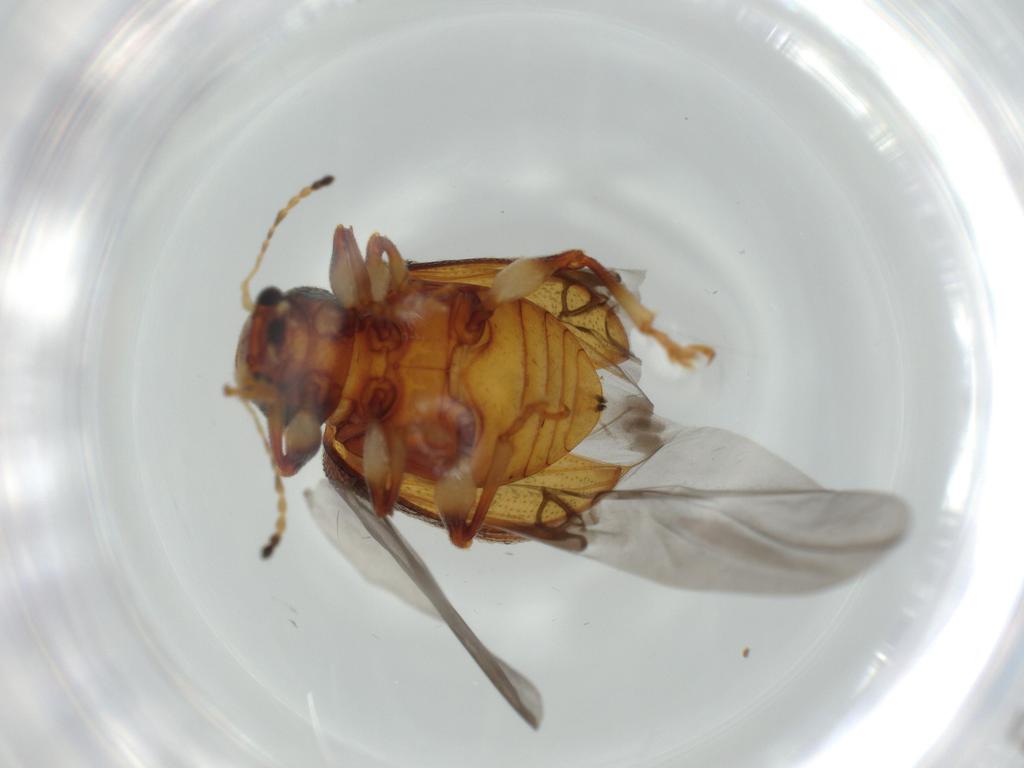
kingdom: Animalia
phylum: Arthropoda
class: Insecta
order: Coleoptera
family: Chrysomelidae
